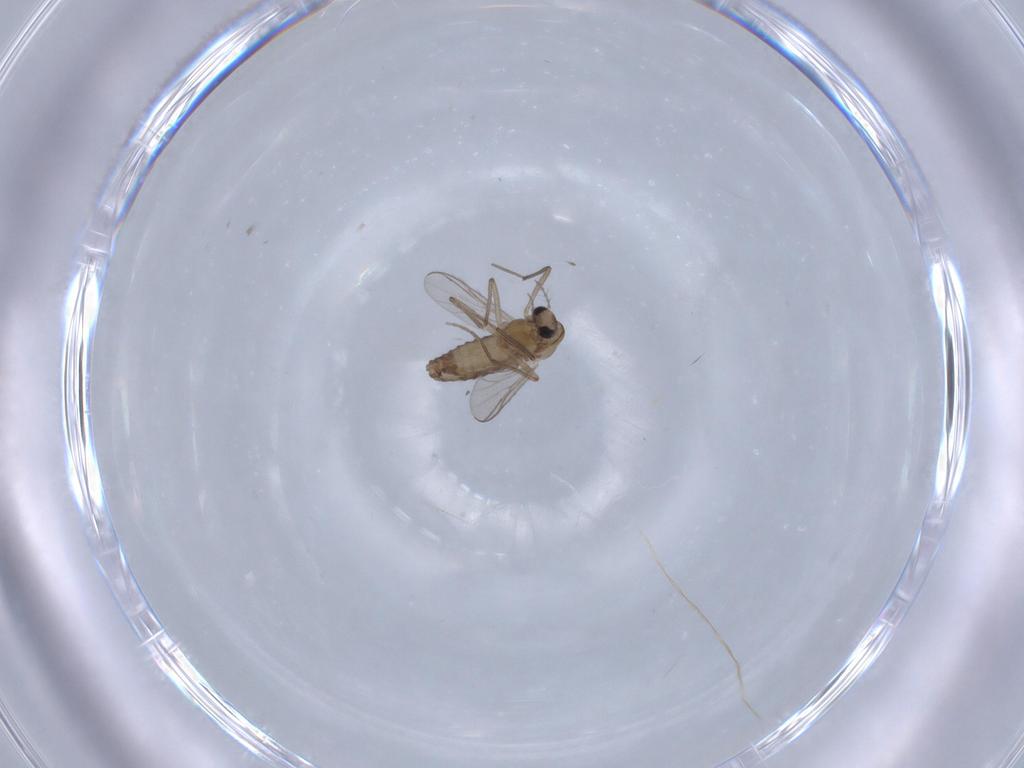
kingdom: Animalia
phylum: Arthropoda
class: Insecta
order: Diptera
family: Chironomidae
